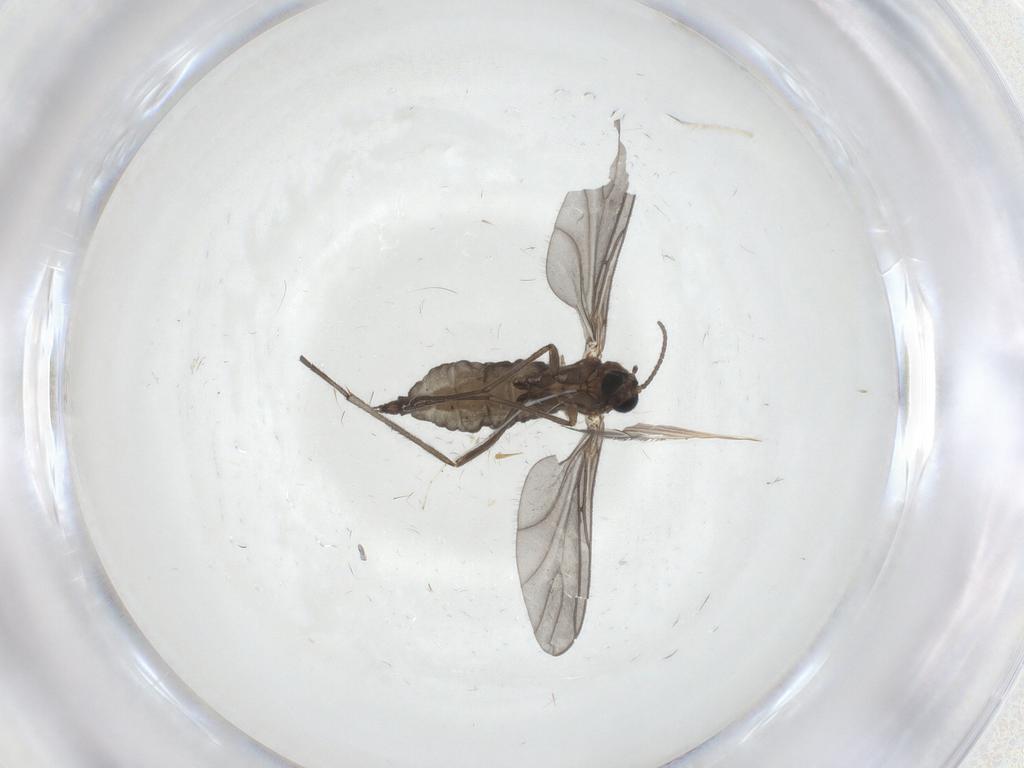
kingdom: Animalia
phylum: Arthropoda
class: Insecta
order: Diptera
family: Sciaridae
